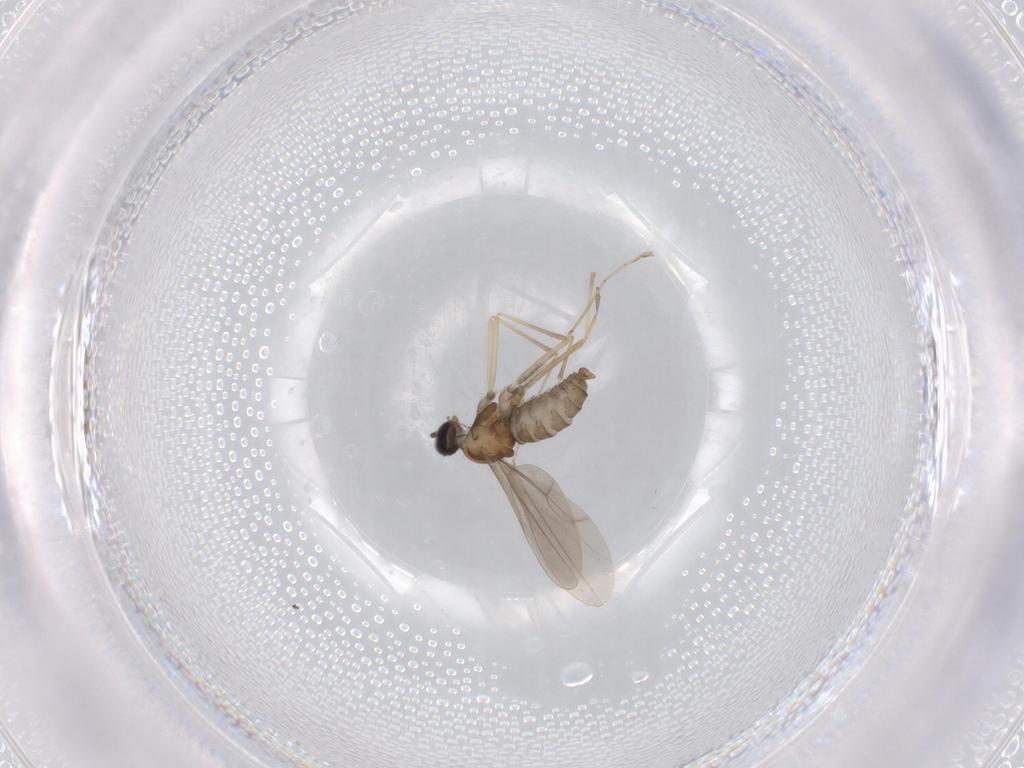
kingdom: Animalia
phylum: Arthropoda
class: Insecta
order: Diptera
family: Cecidomyiidae
